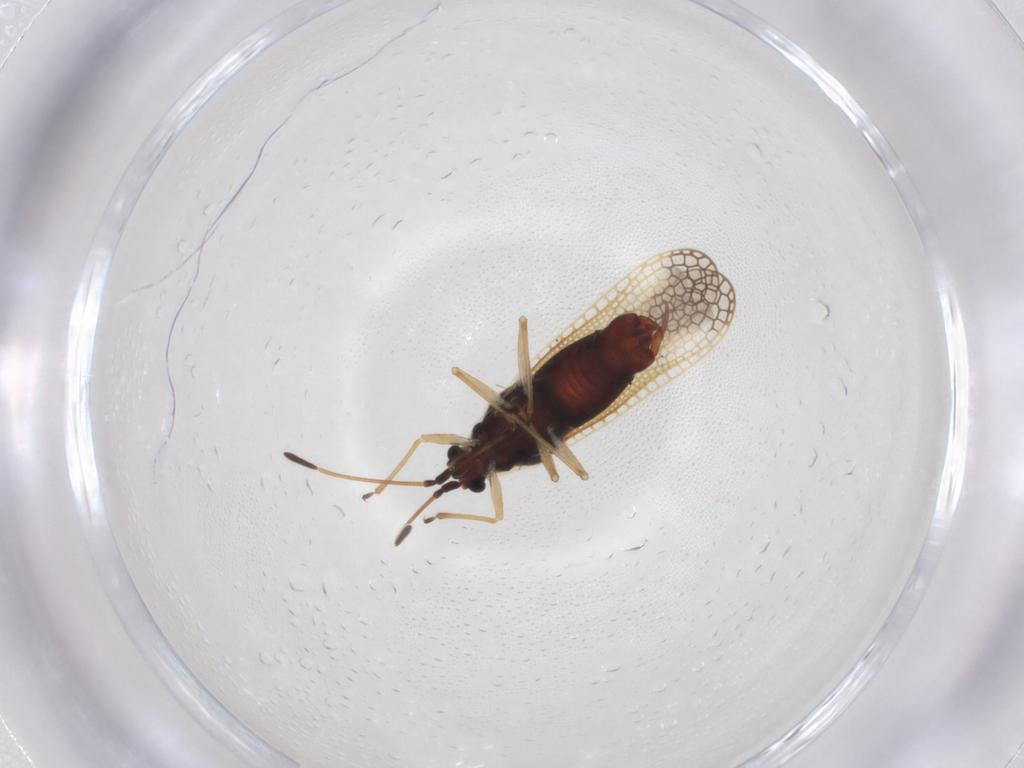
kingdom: Animalia
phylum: Arthropoda
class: Insecta
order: Hemiptera
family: Tingidae
